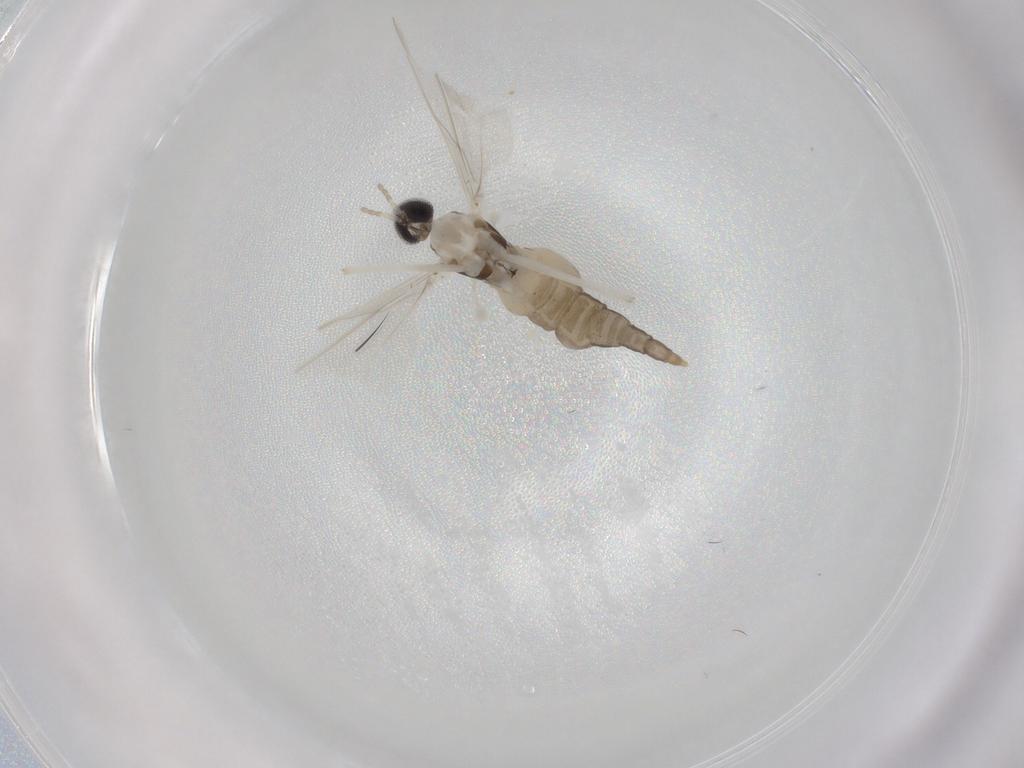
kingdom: Animalia
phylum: Arthropoda
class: Insecta
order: Diptera
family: Cecidomyiidae
